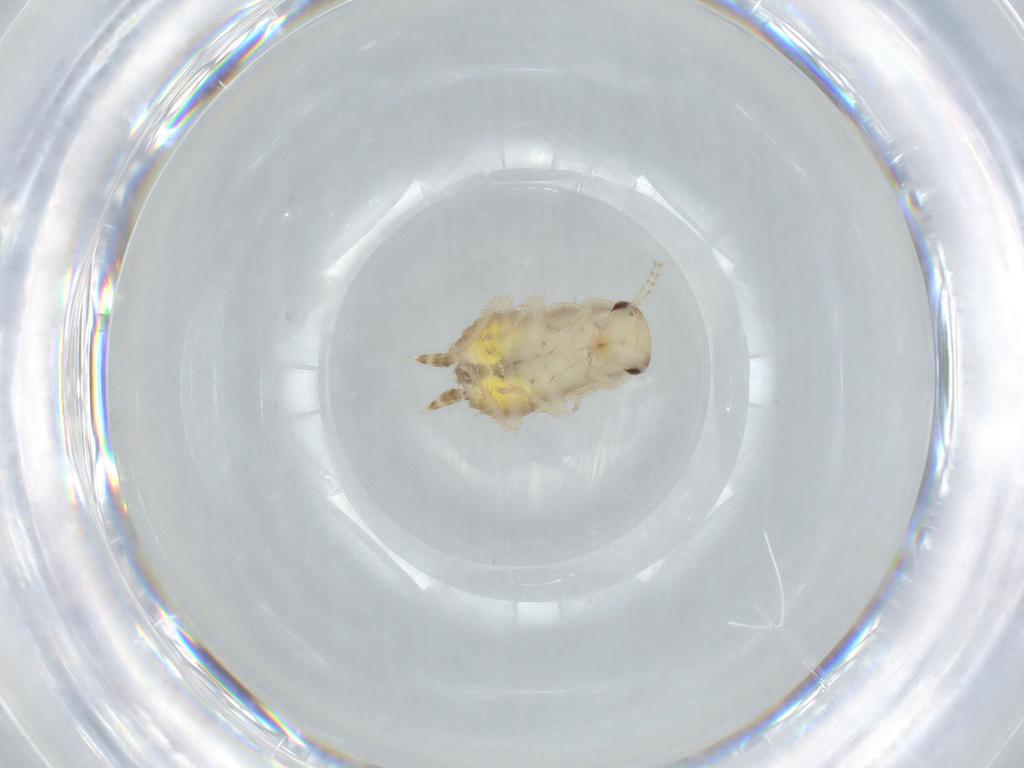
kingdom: Animalia
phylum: Arthropoda
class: Insecta
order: Blattodea
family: Ectobiidae
